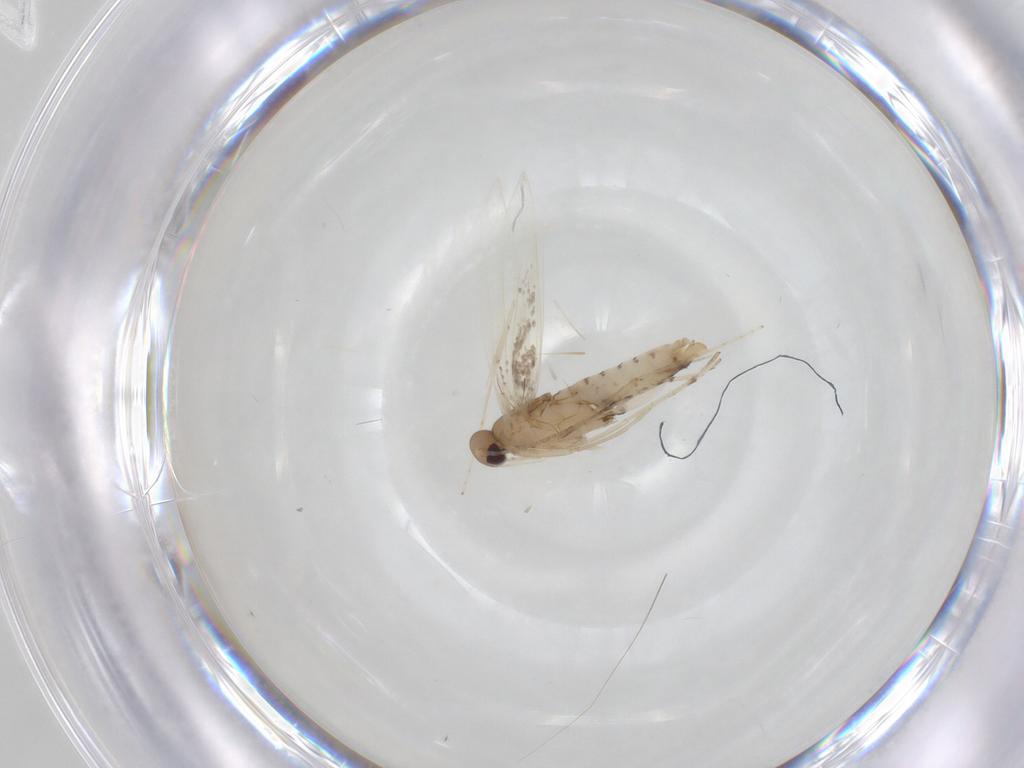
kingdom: Animalia
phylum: Arthropoda
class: Insecta
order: Lepidoptera
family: Gracillariidae
